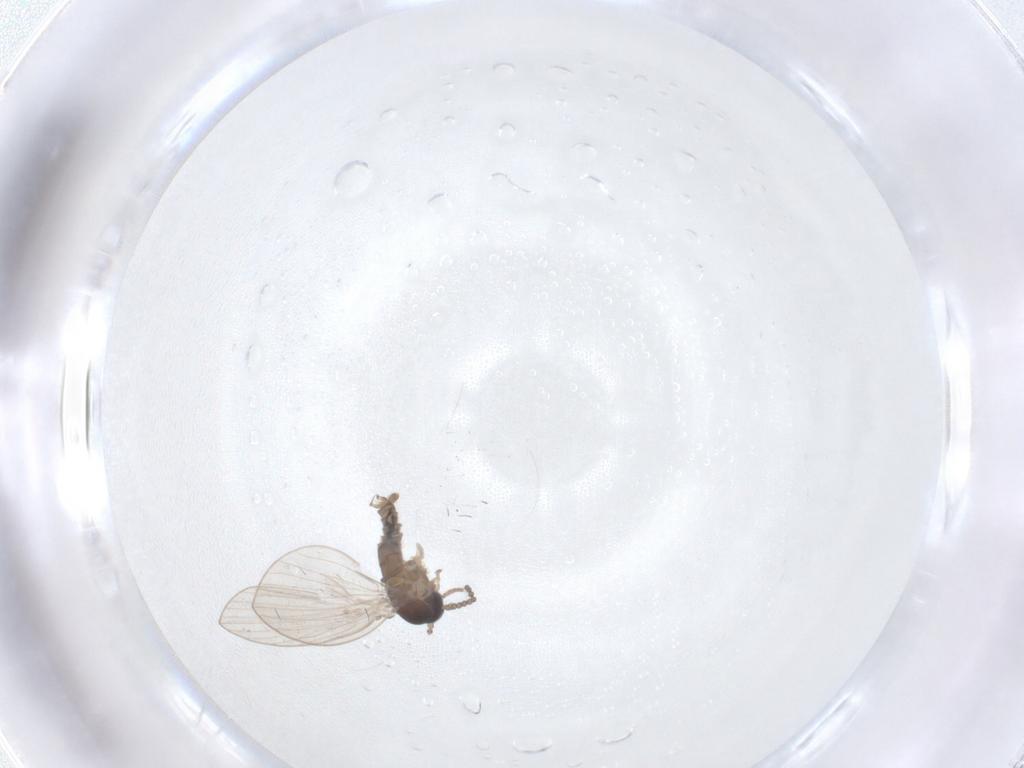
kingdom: Animalia
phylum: Arthropoda
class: Insecta
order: Diptera
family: Psychodidae
